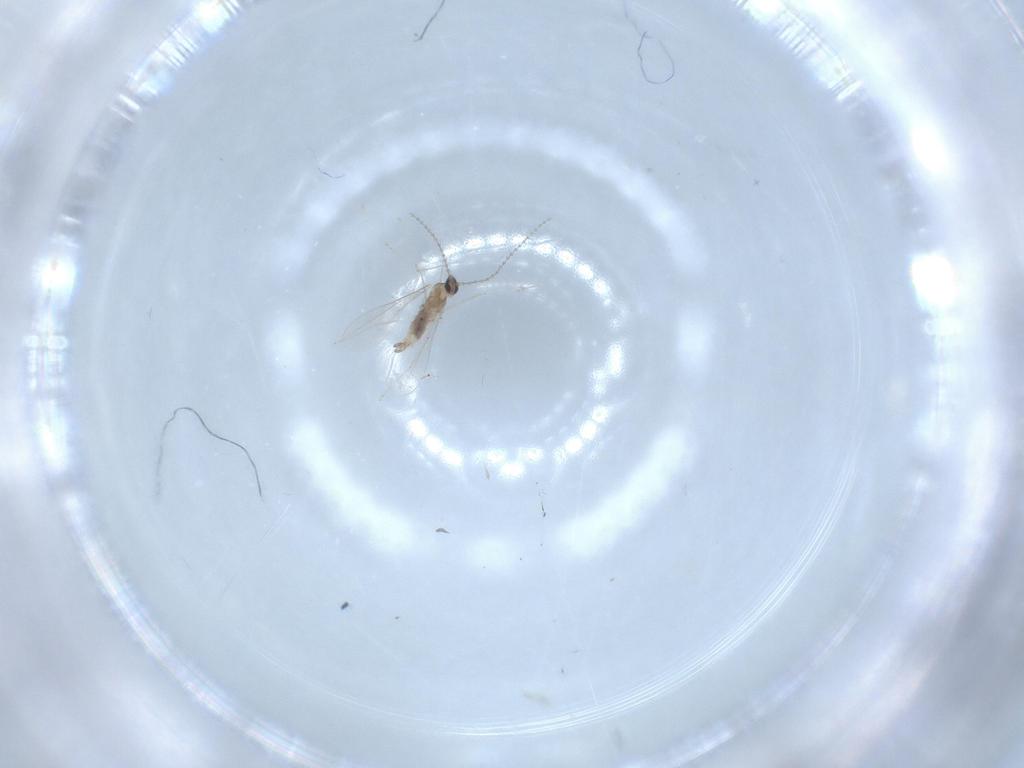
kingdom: Animalia
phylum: Arthropoda
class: Insecta
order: Diptera
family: Cecidomyiidae
